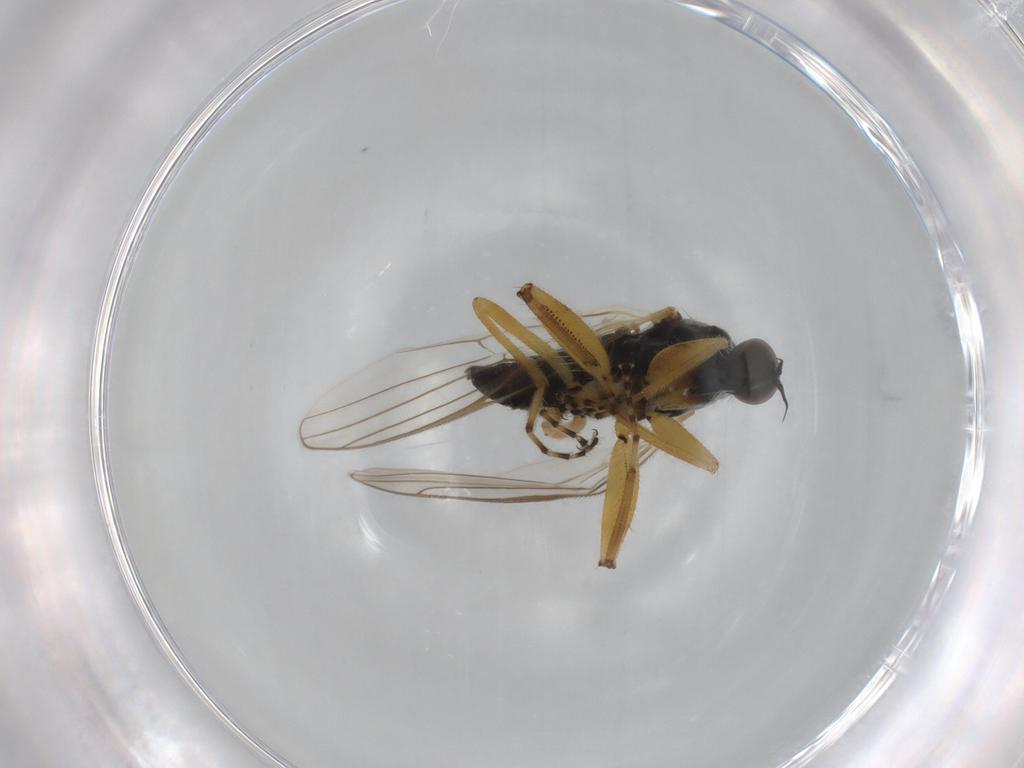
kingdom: Animalia
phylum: Arthropoda
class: Insecta
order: Diptera
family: Hybotidae
